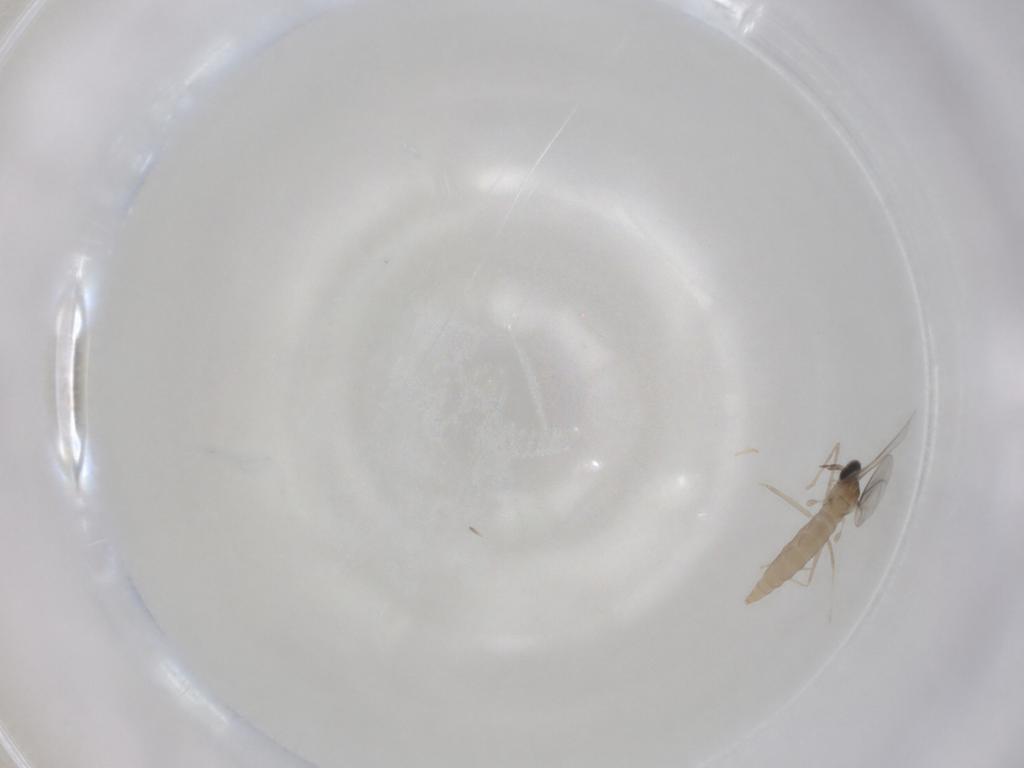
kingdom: Animalia
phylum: Arthropoda
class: Insecta
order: Diptera
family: Cecidomyiidae
